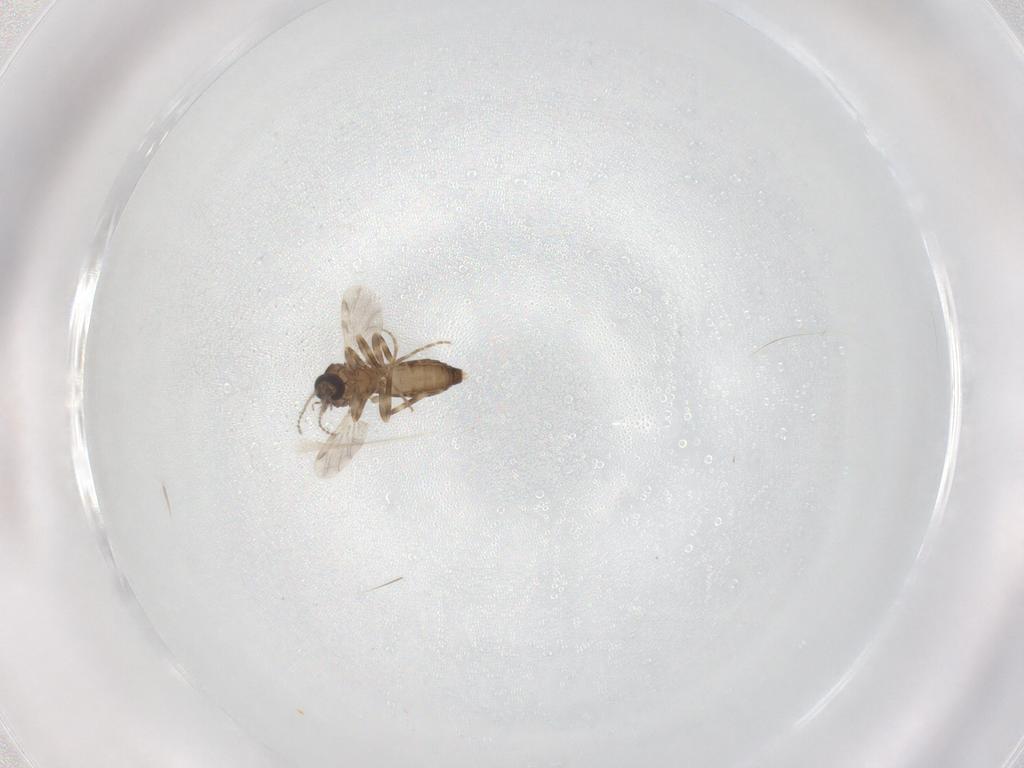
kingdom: Animalia
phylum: Arthropoda
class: Insecta
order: Diptera
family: Ceratopogonidae
